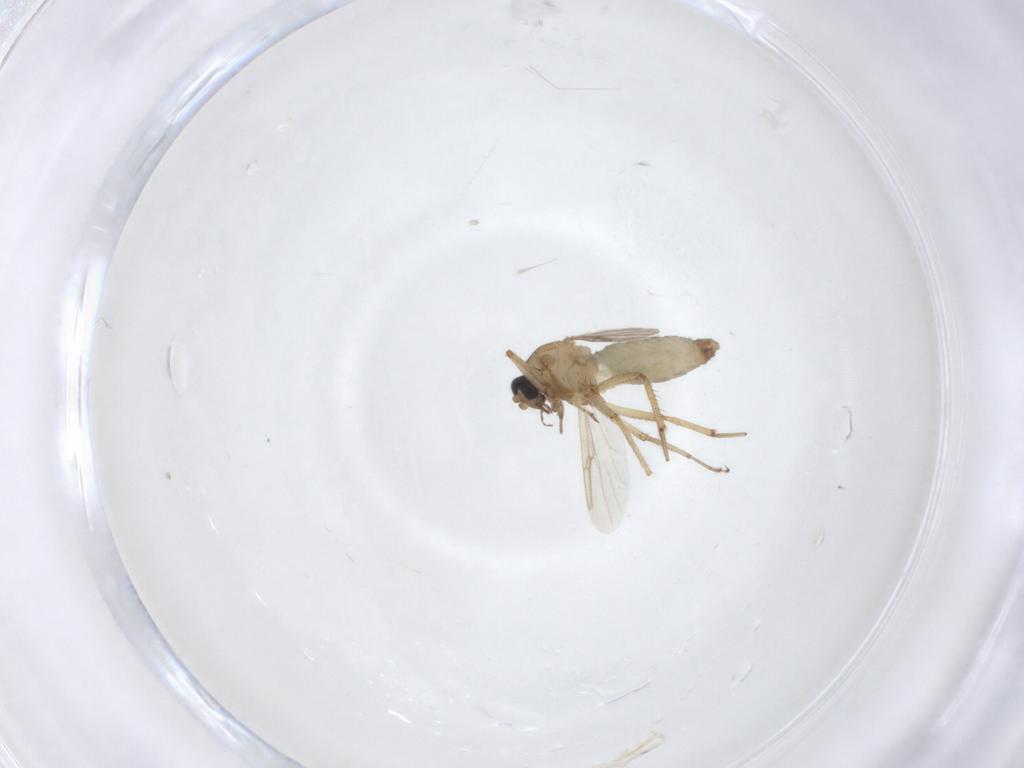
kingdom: Animalia
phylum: Arthropoda
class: Insecta
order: Diptera
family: Ceratopogonidae
